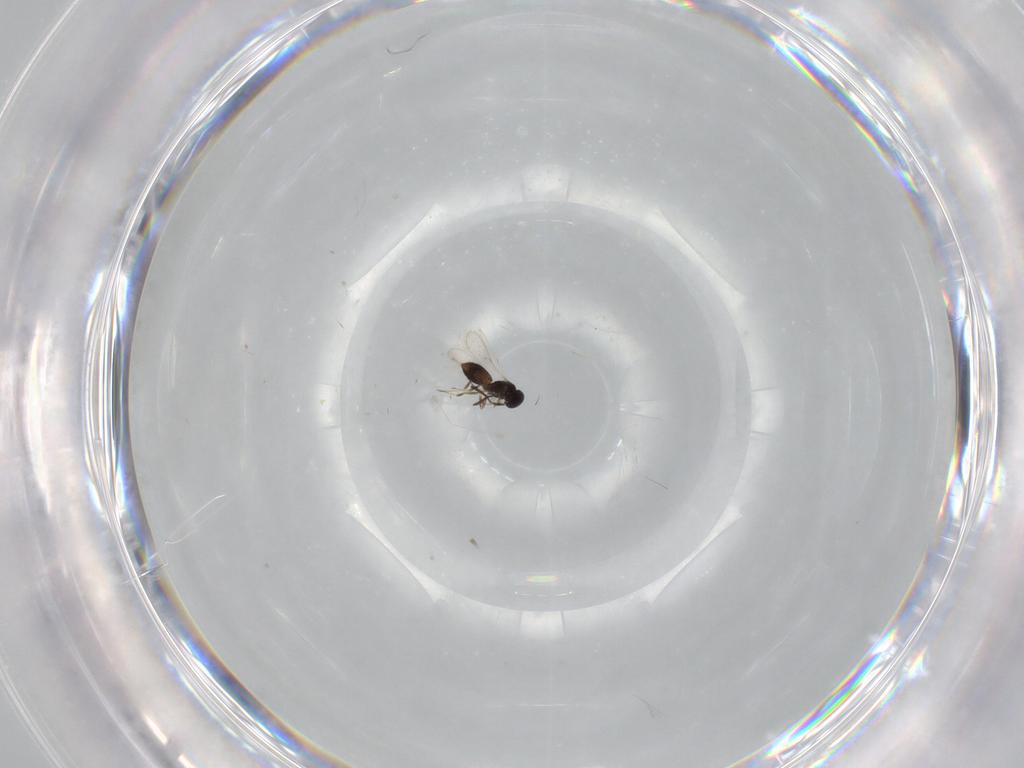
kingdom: Animalia
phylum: Arthropoda
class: Insecta
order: Hymenoptera
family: Scelionidae
